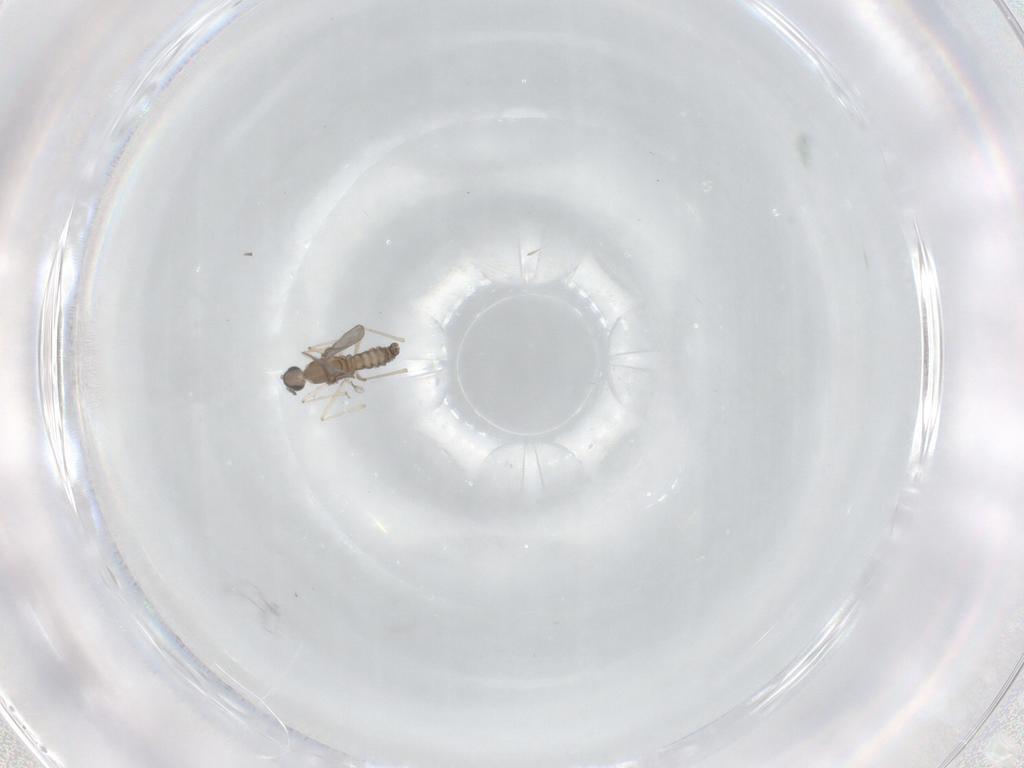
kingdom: Animalia
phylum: Arthropoda
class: Insecta
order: Diptera
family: Cecidomyiidae
